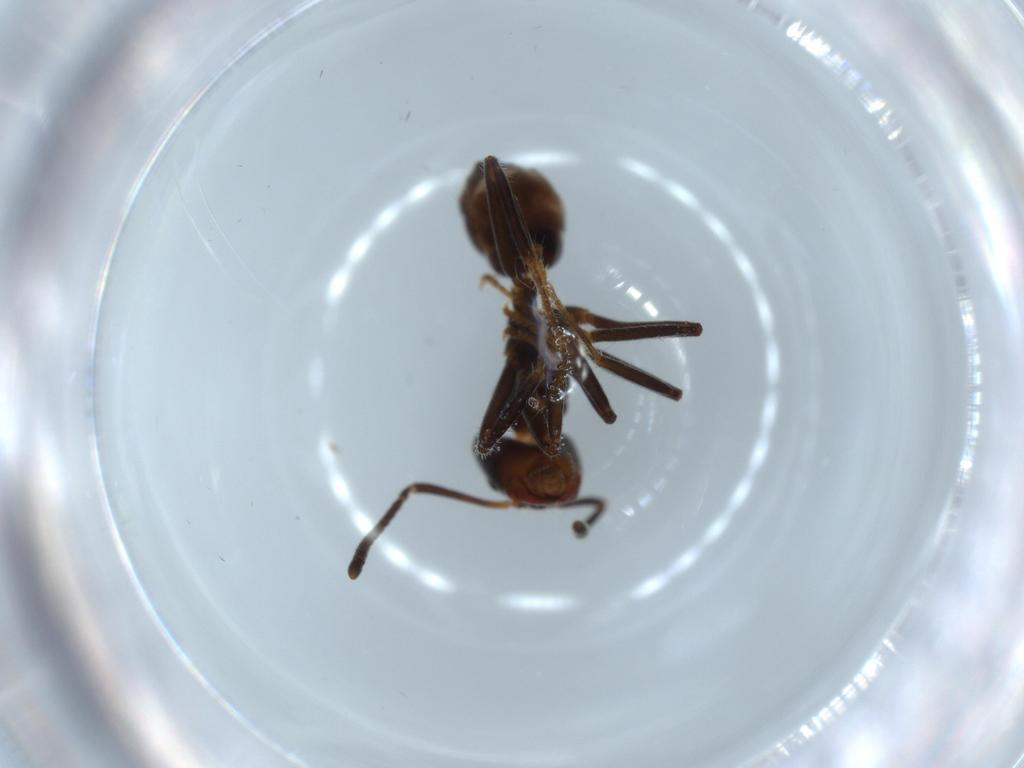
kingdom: Animalia
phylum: Arthropoda
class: Insecta
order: Hymenoptera
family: Formicidae
